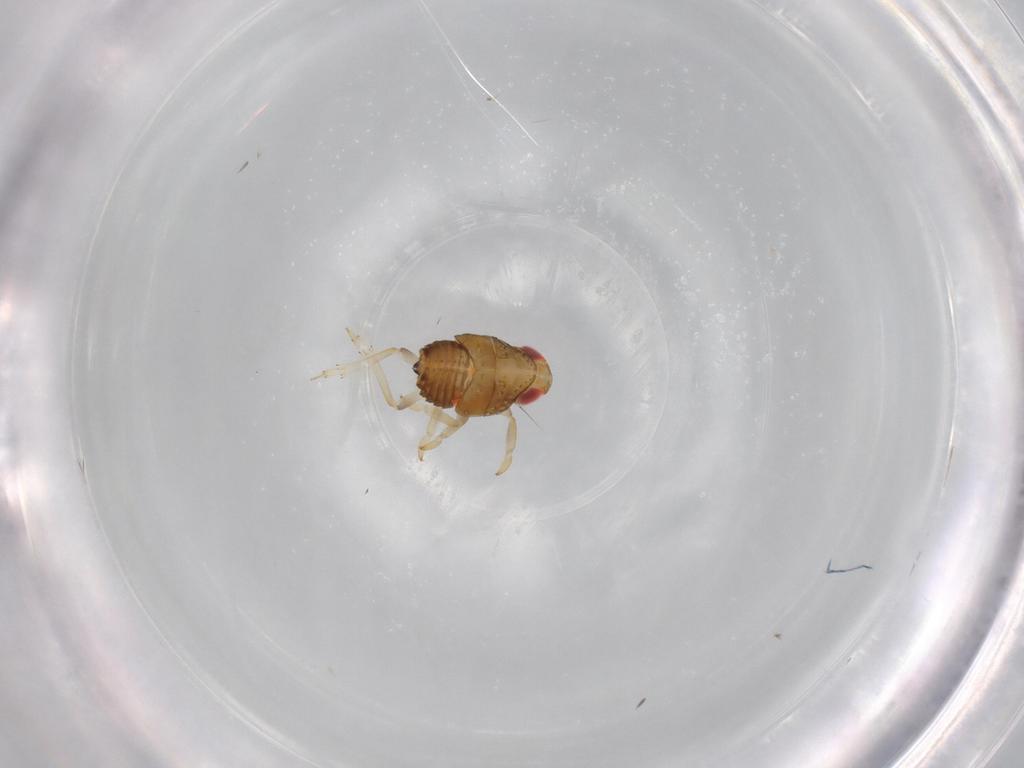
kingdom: Animalia
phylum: Arthropoda
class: Insecta
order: Hemiptera
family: Issidae
